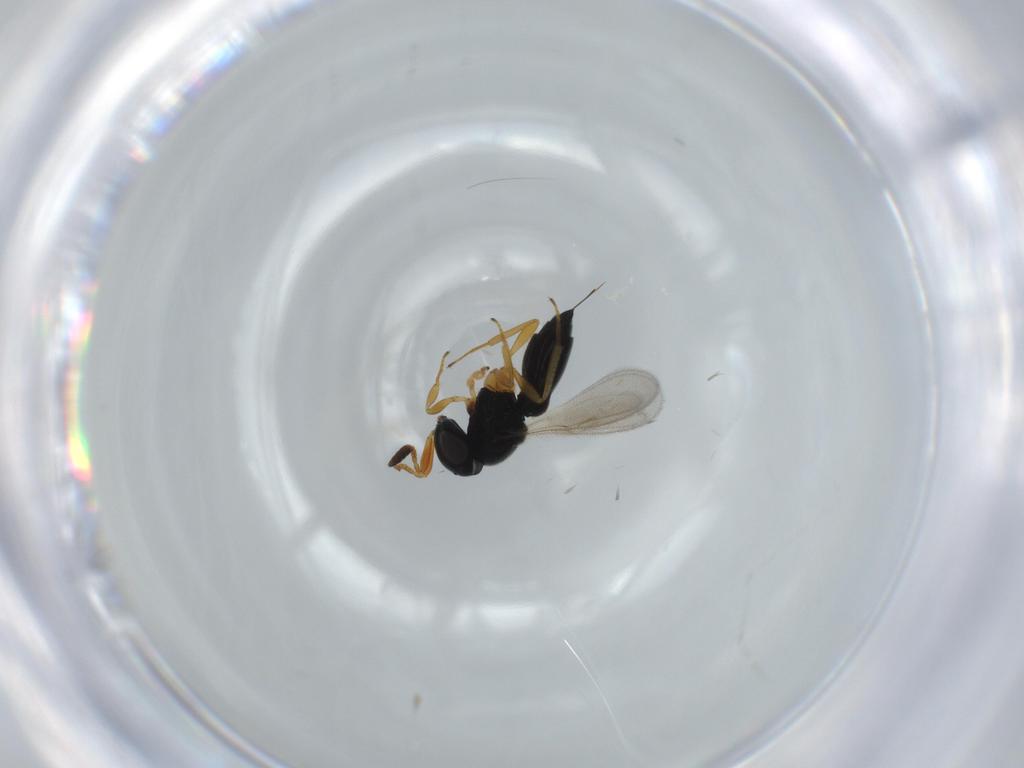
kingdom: Animalia
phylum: Arthropoda
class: Insecta
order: Hymenoptera
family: Scelionidae
